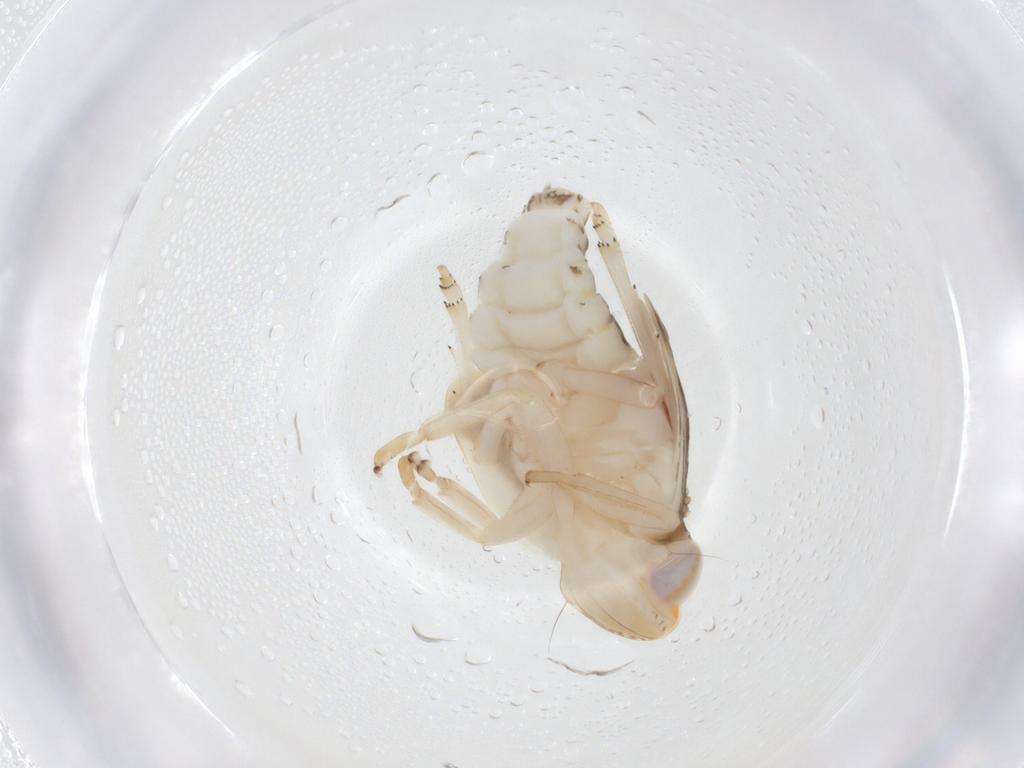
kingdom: Animalia
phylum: Arthropoda
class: Insecta
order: Hemiptera
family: Nogodinidae
